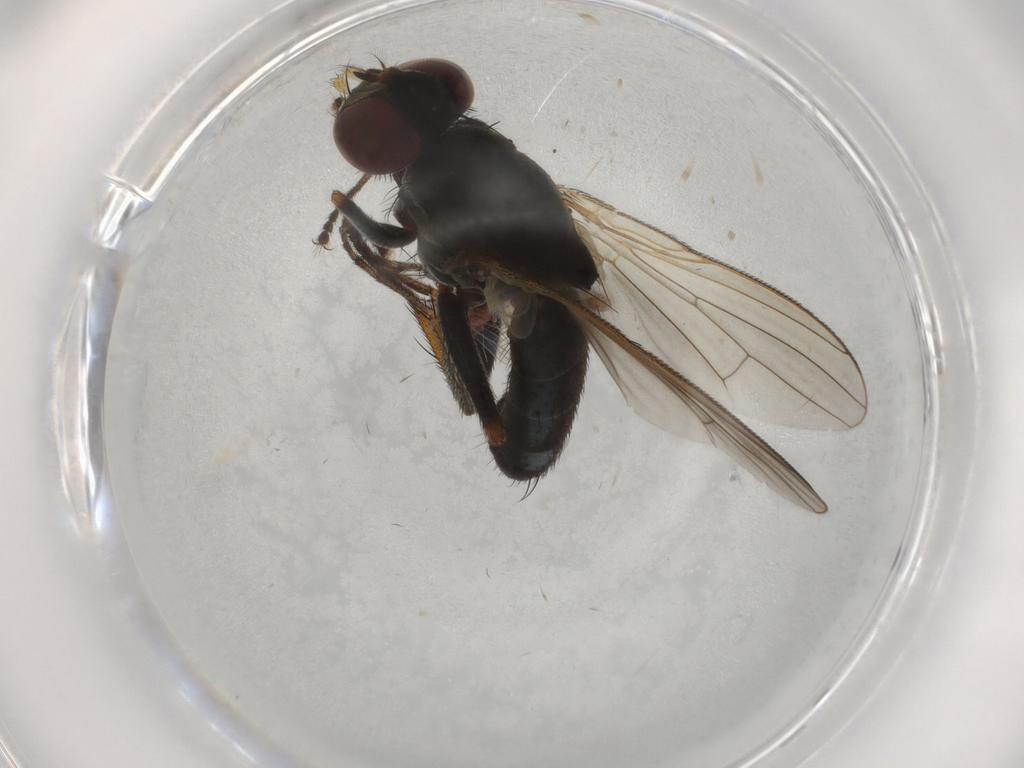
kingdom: Animalia
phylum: Arthropoda
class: Insecta
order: Diptera
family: Muscidae
